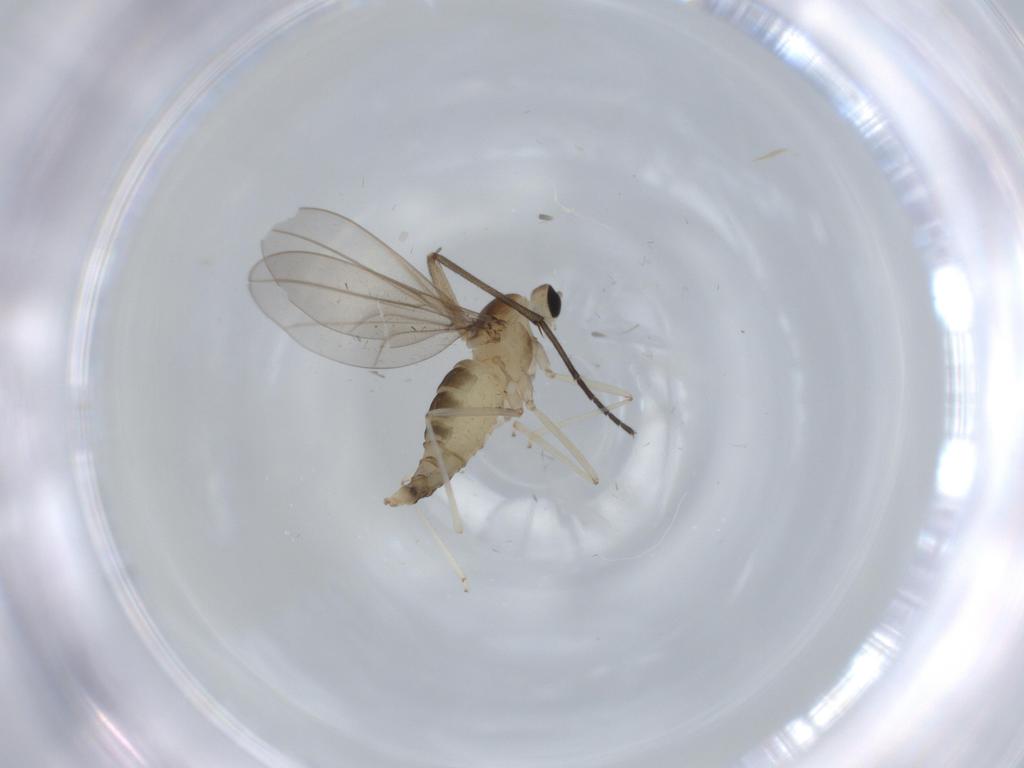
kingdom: Animalia
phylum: Arthropoda
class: Insecta
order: Diptera
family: Cecidomyiidae
